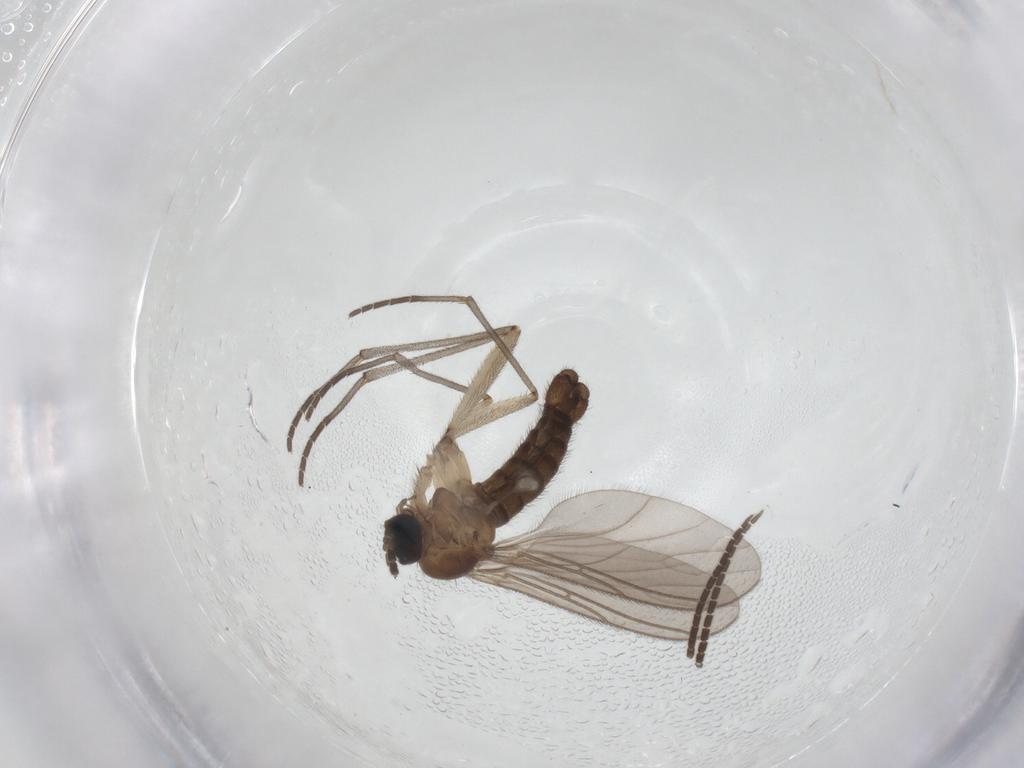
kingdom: Animalia
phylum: Arthropoda
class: Insecta
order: Diptera
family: Sciaridae
